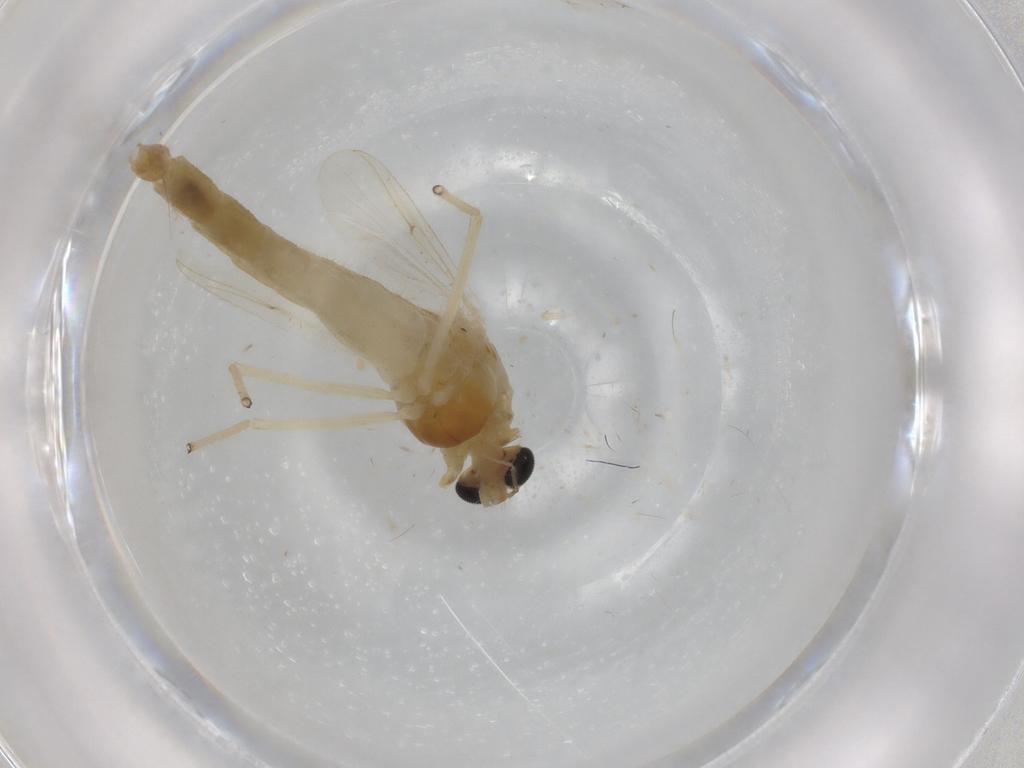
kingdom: Animalia
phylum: Arthropoda
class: Insecta
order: Diptera
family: Chironomidae
